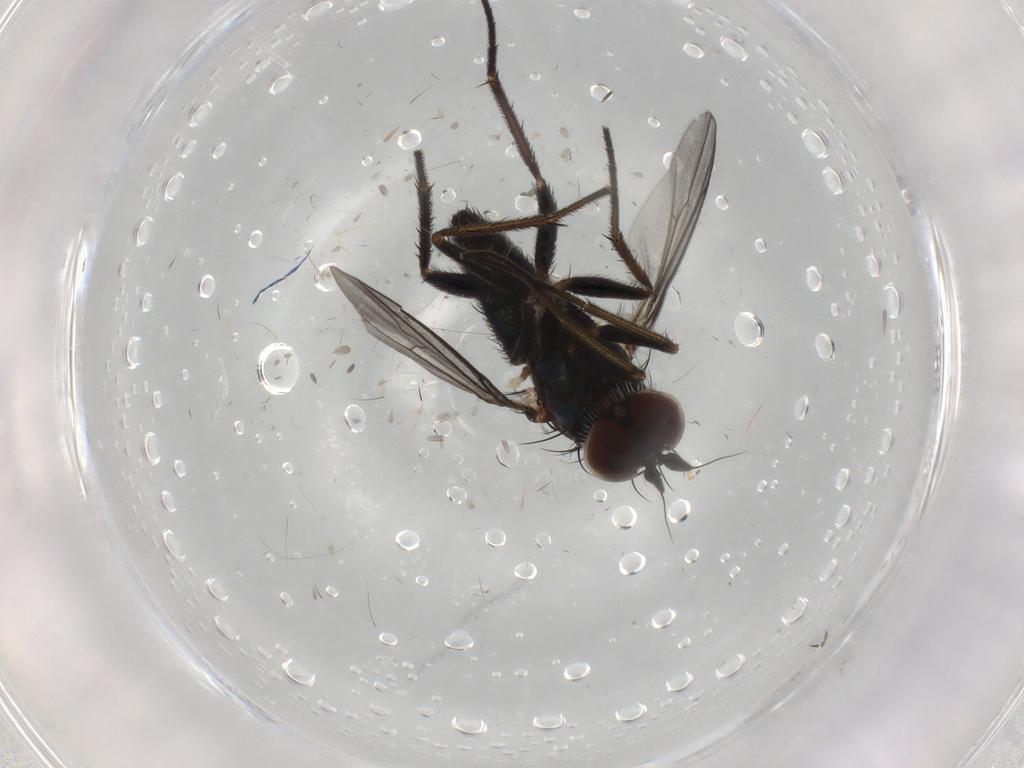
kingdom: Animalia
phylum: Arthropoda
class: Insecta
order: Diptera
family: Dolichopodidae
